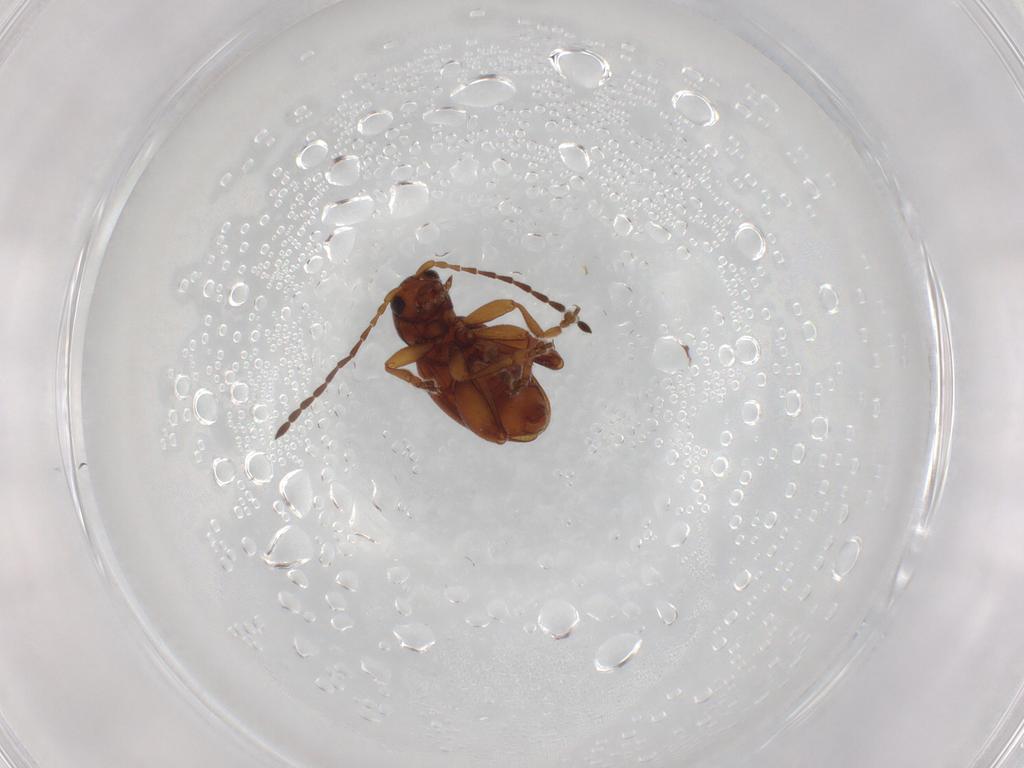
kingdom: Animalia
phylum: Arthropoda
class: Insecta
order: Coleoptera
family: Chrysomelidae
